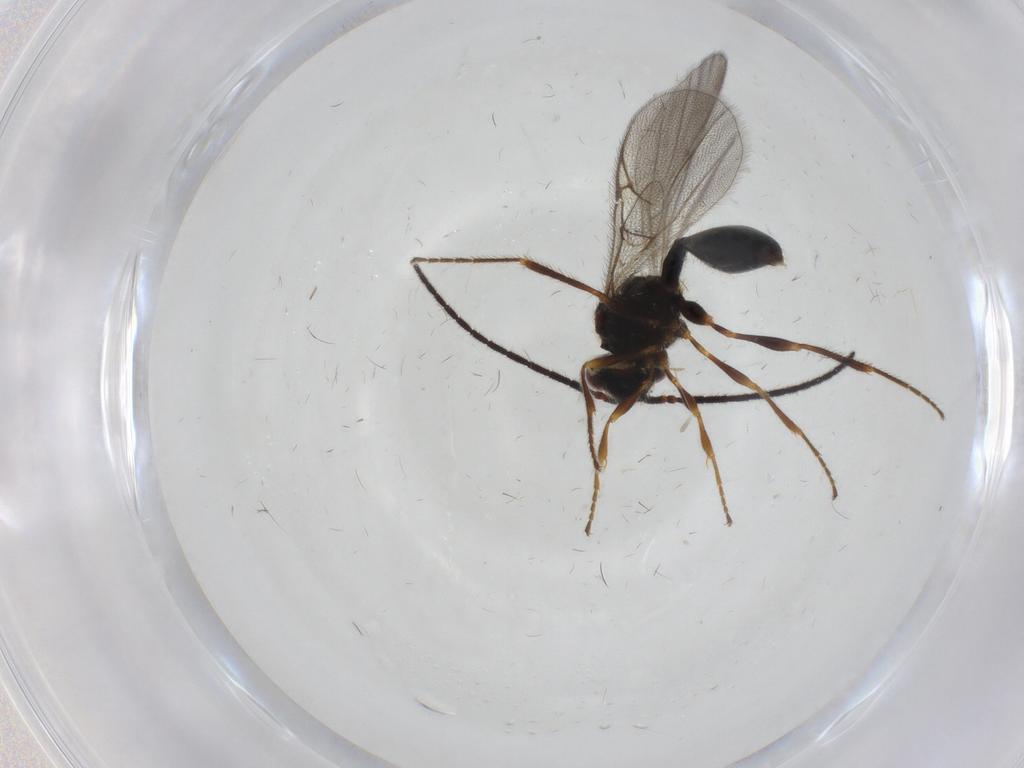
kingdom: Animalia
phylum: Arthropoda
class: Insecta
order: Hymenoptera
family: Diapriidae
